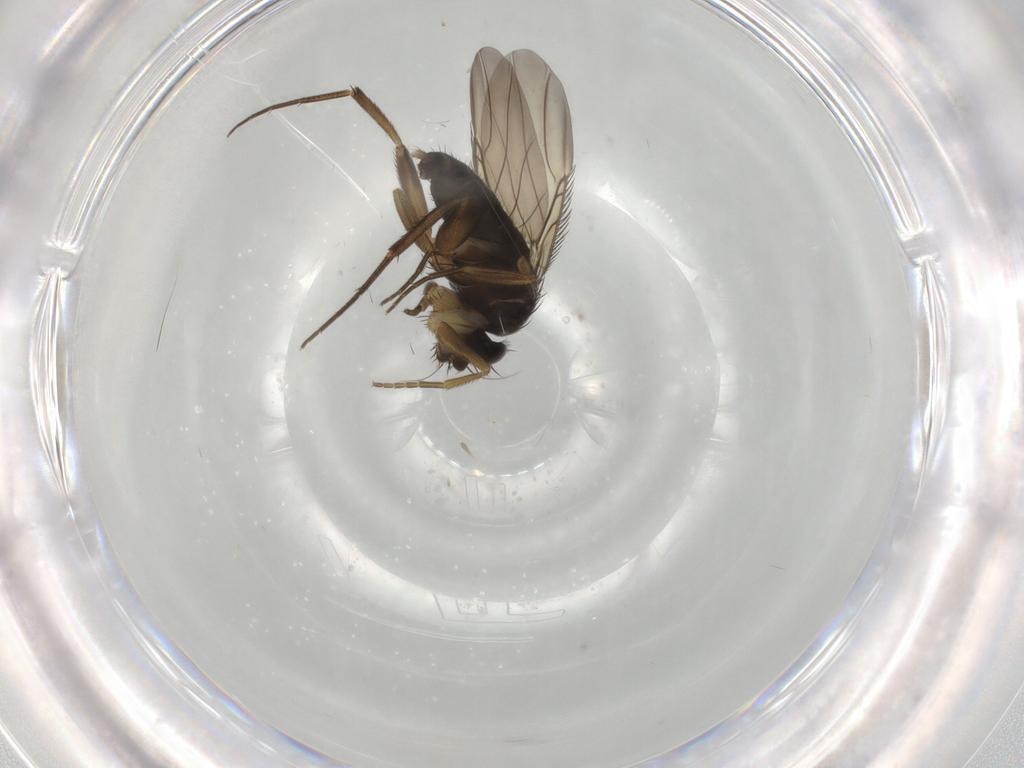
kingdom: Animalia
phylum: Arthropoda
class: Insecta
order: Diptera
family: Phoridae
